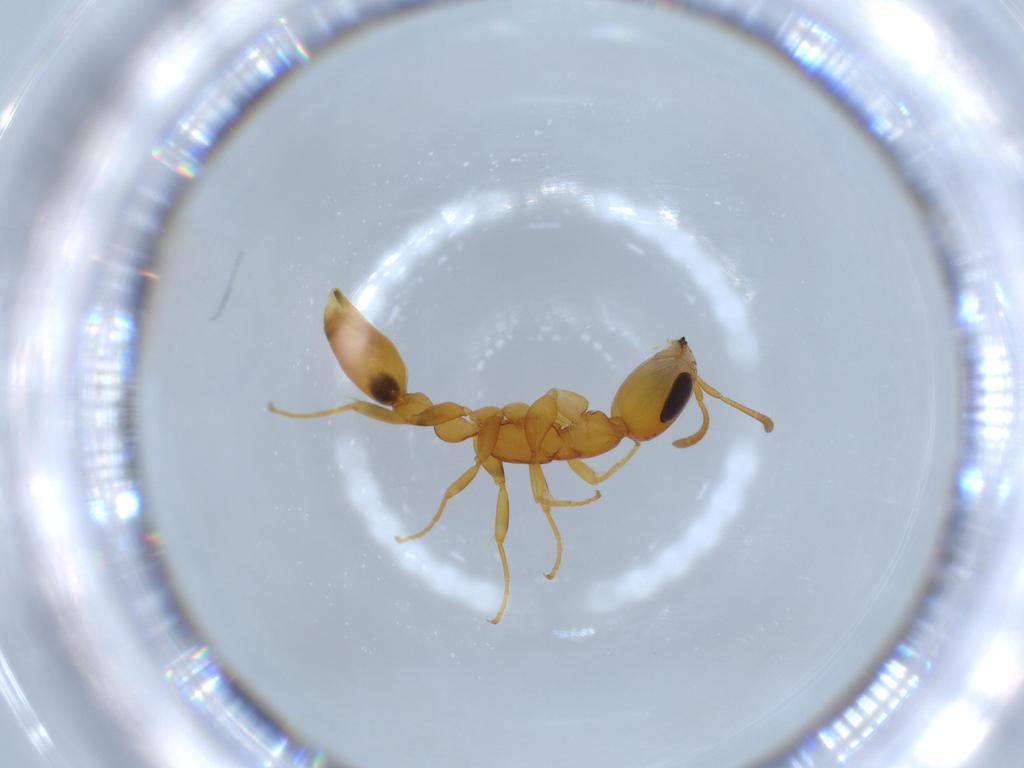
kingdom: Animalia
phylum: Arthropoda
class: Insecta
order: Hymenoptera
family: Formicidae
